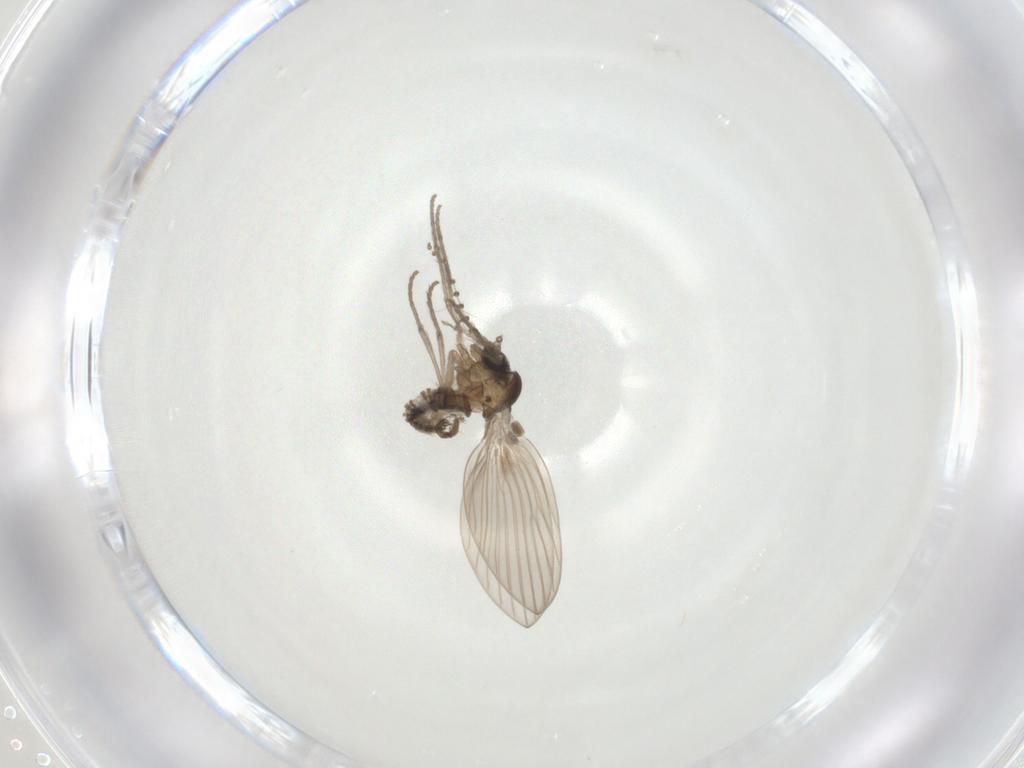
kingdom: Animalia
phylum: Arthropoda
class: Insecta
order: Diptera
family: Psychodidae
